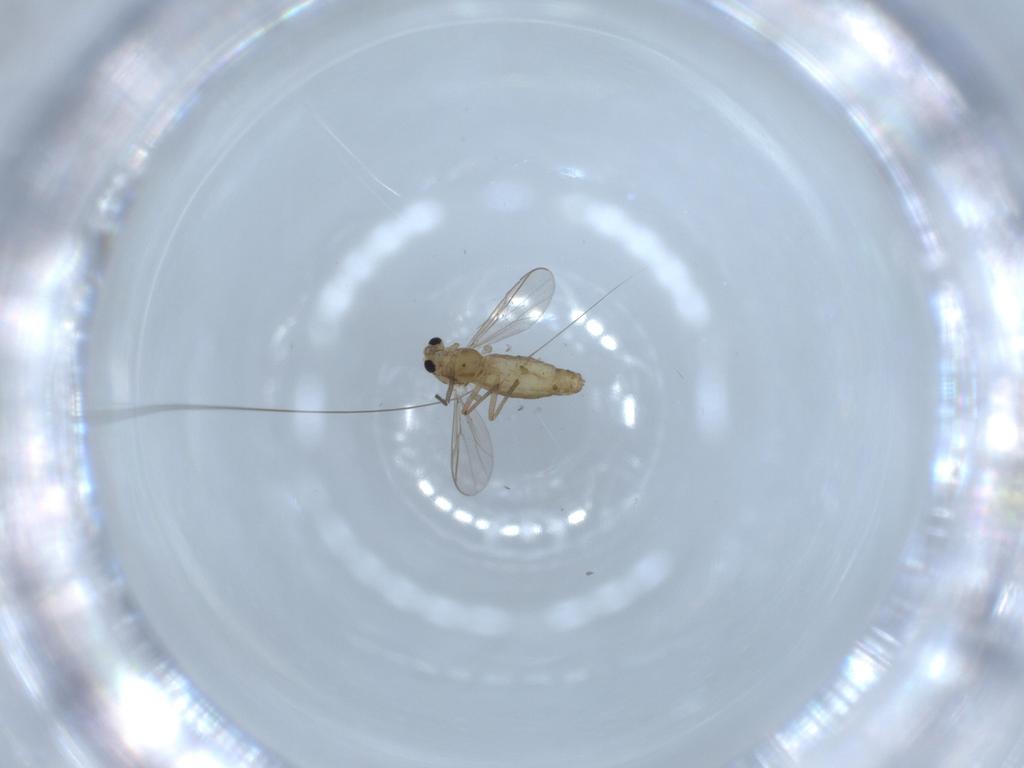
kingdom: Animalia
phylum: Arthropoda
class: Insecta
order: Diptera
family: Chironomidae
